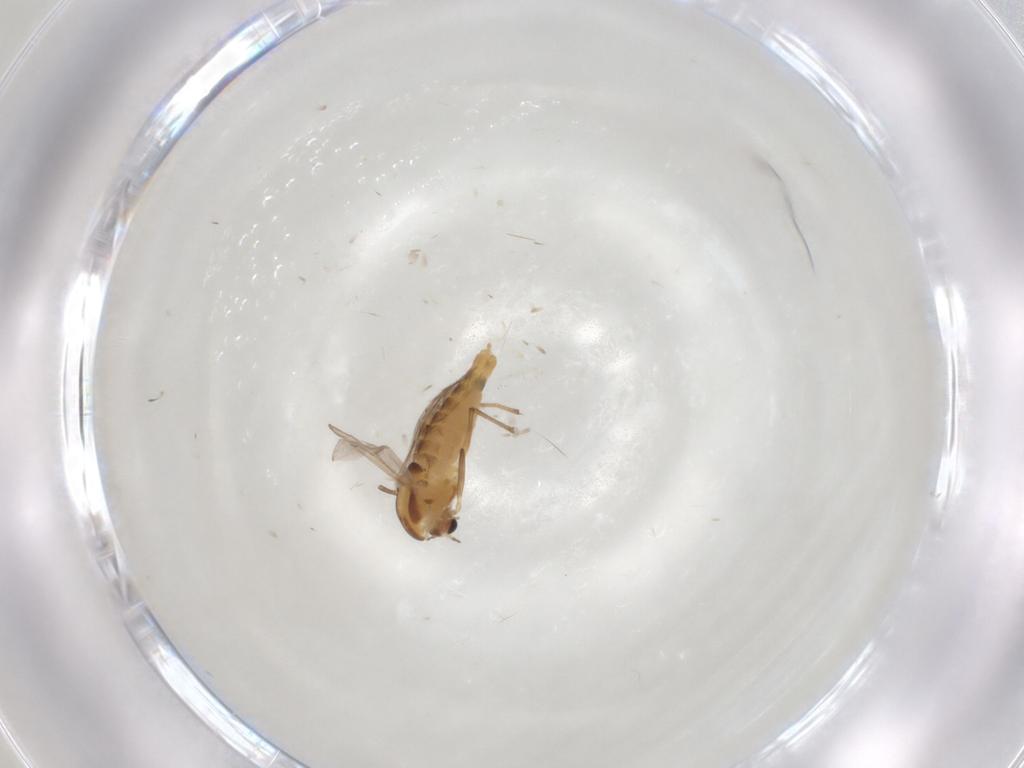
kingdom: Animalia
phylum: Arthropoda
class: Insecta
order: Diptera
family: Chironomidae
